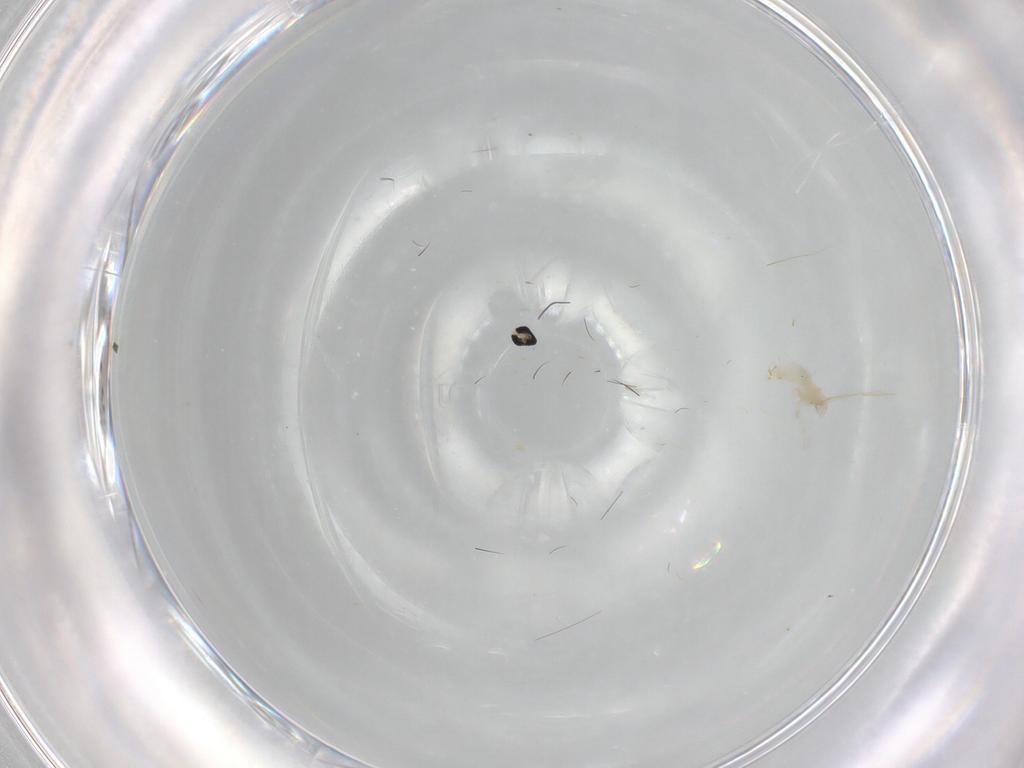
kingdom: Animalia
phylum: Arthropoda
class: Insecta
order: Diptera
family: Cecidomyiidae
